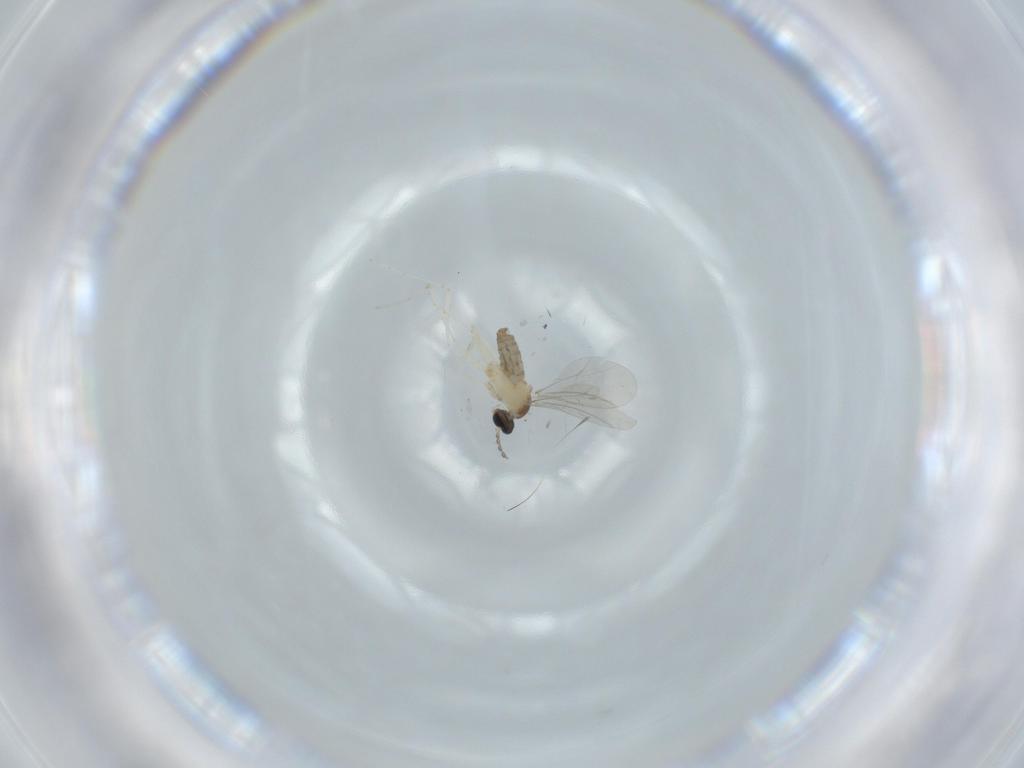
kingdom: Animalia
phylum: Arthropoda
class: Insecta
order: Diptera
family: Cecidomyiidae
